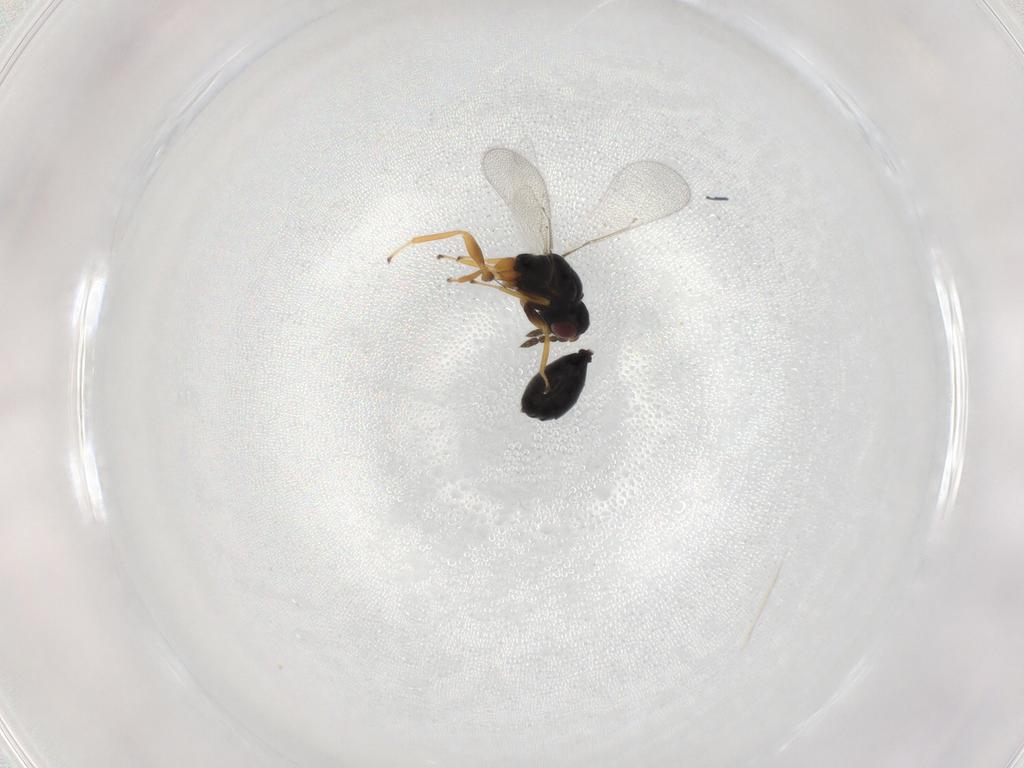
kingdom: Animalia
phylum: Arthropoda
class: Insecta
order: Hymenoptera
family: Eulophidae
